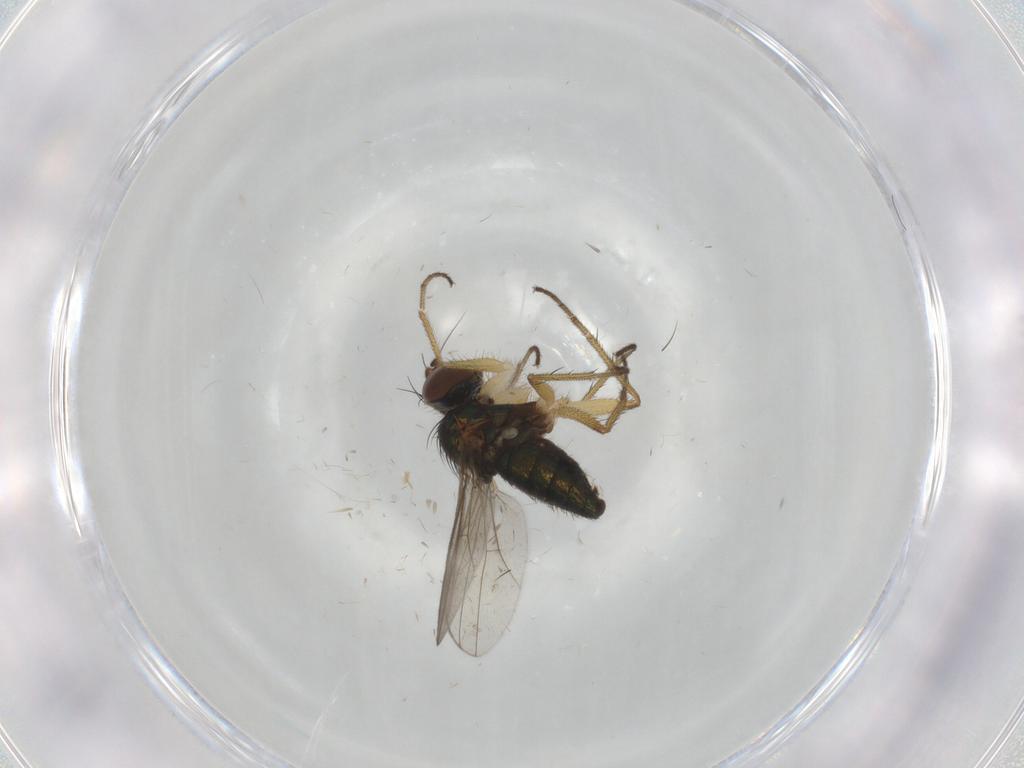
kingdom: Animalia
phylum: Arthropoda
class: Insecta
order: Diptera
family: Chironomidae
